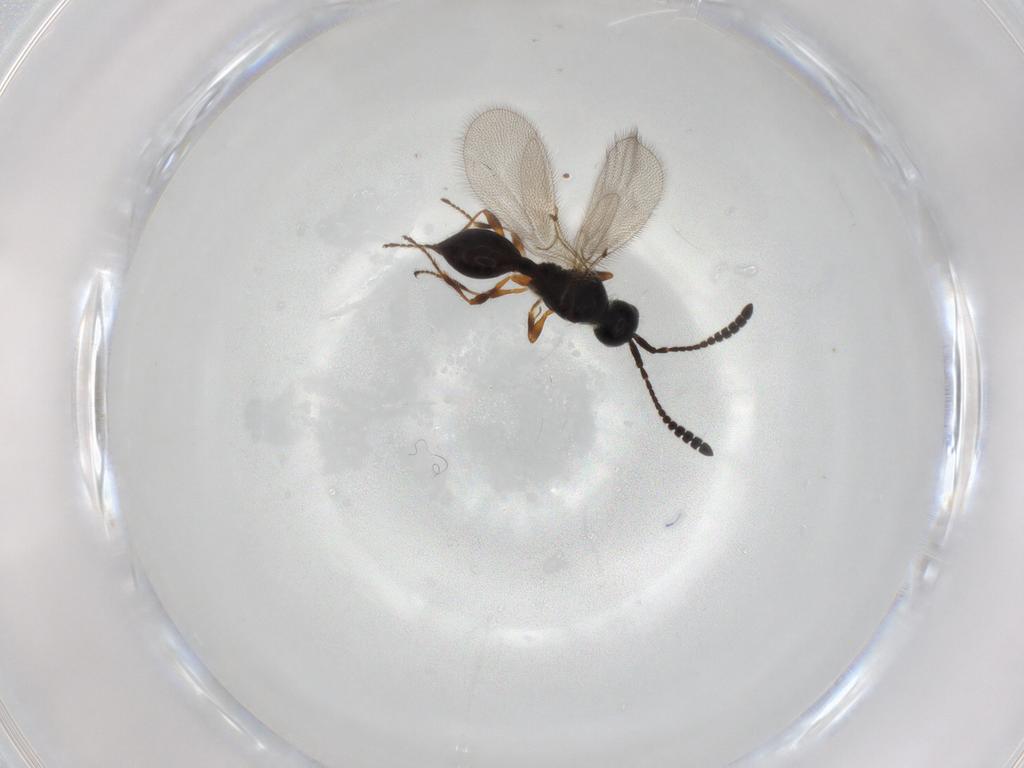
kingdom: Animalia
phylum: Arthropoda
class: Insecta
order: Hymenoptera
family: Diapriidae
